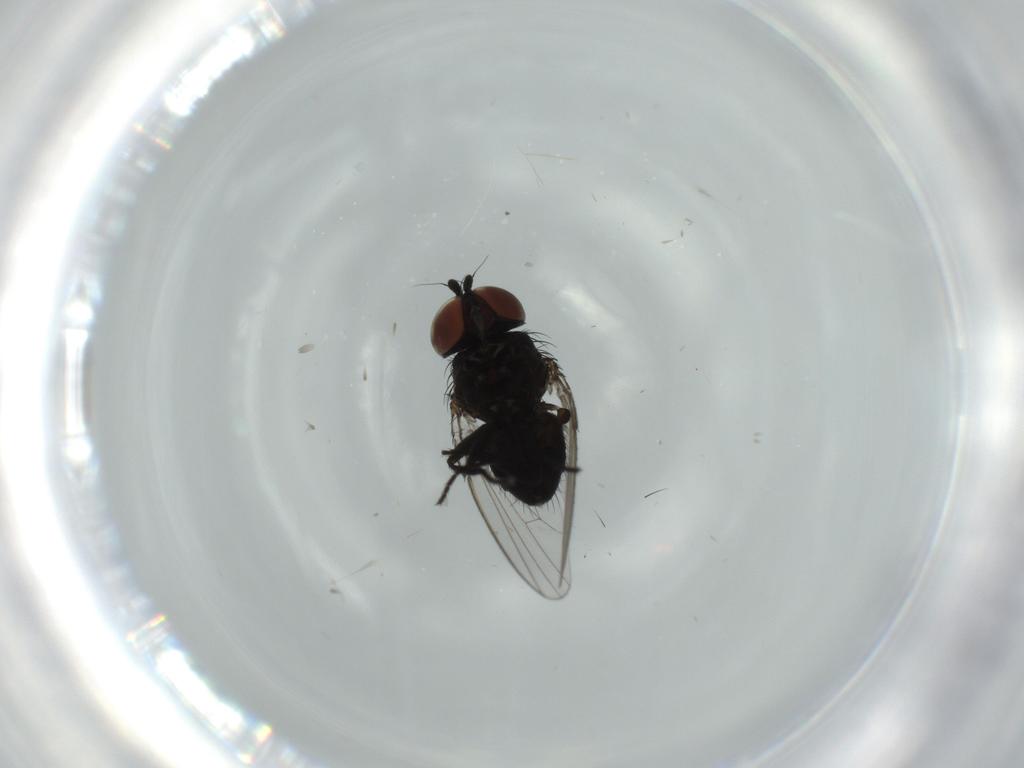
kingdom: Animalia
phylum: Arthropoda
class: Insecta
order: Diptera
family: Milichiidae
